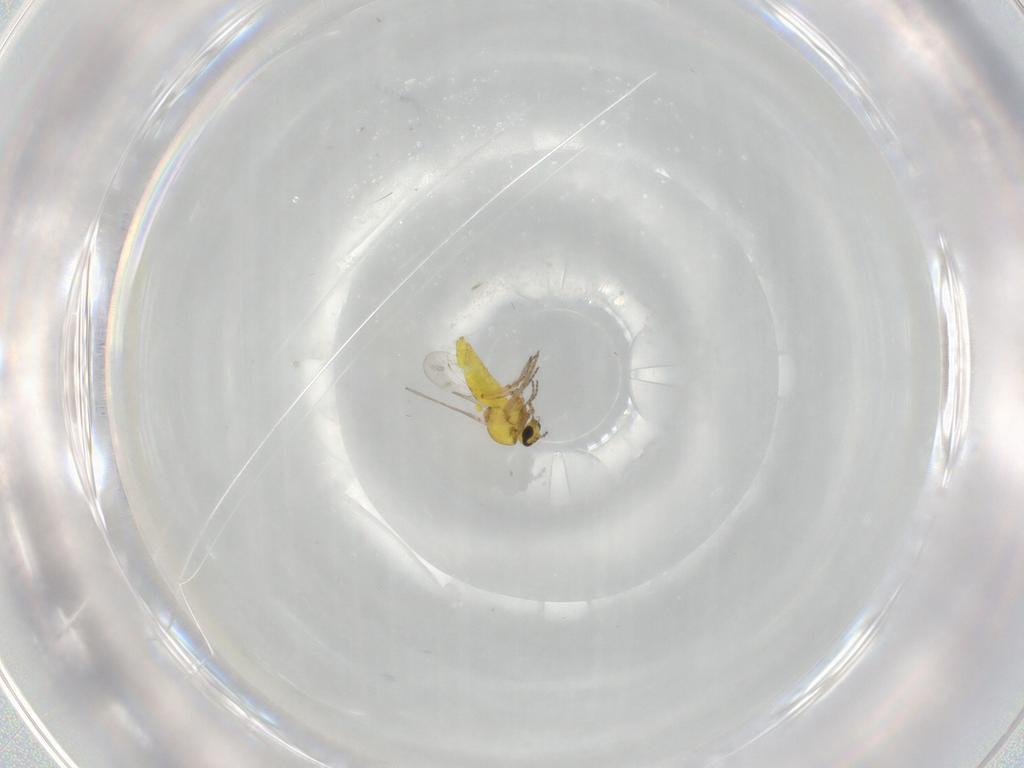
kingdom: Animalia
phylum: Arthropoda
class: Insecta
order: Diptera
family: Ceratopogonidae
